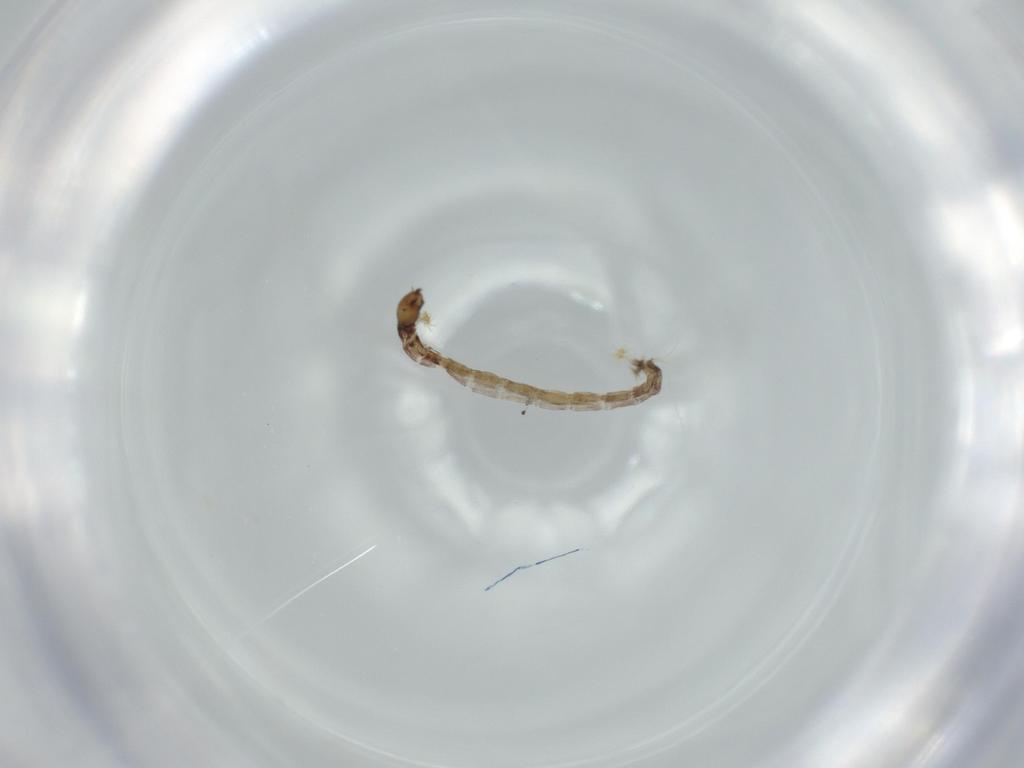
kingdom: Animalia
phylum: Arthropoda
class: Insecta
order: Diptera
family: Chironomidae
